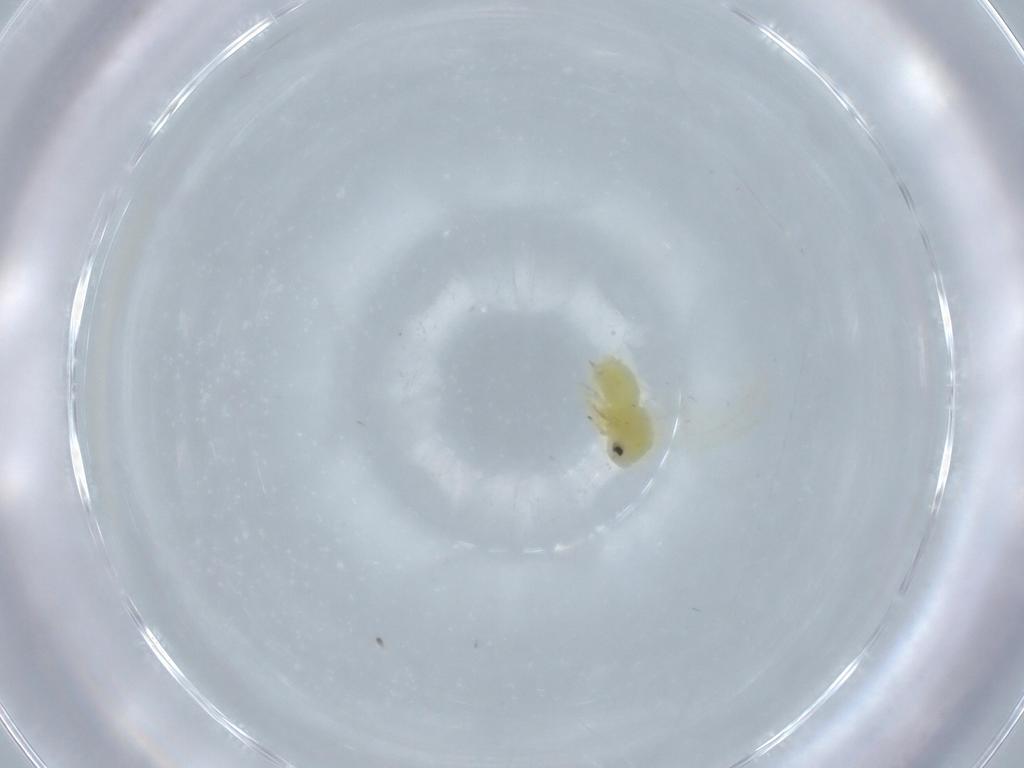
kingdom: Animalia
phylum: Arthropoda
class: Insecta
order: Hemiptera
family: Aleyrodidae
